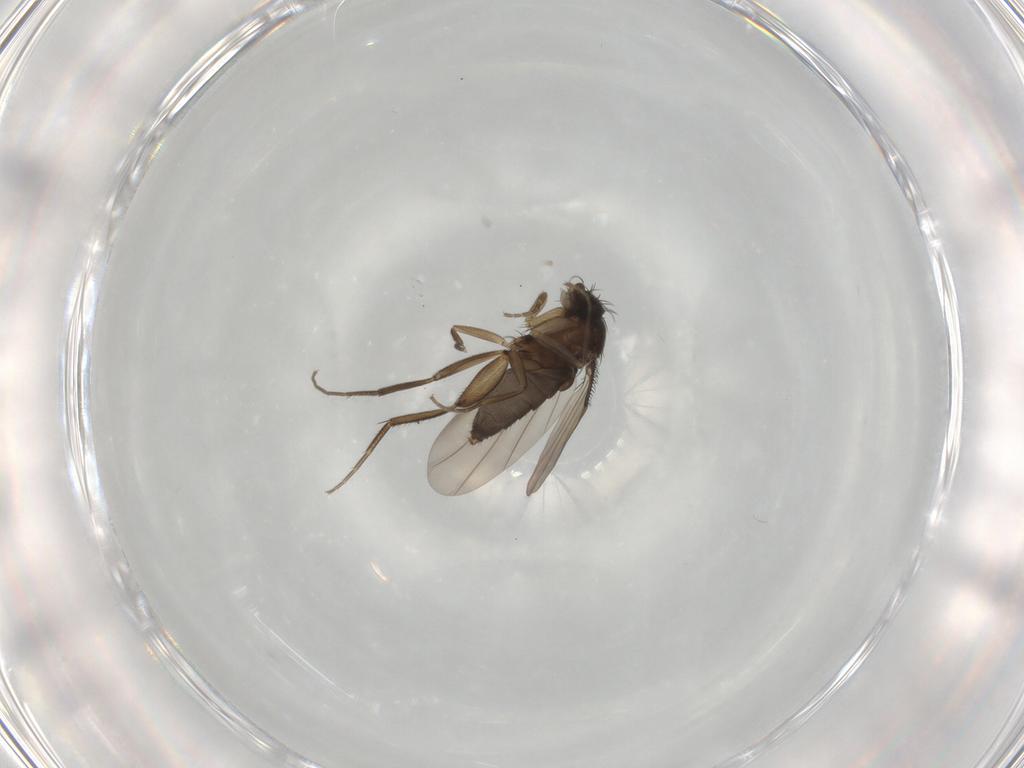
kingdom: Animalia
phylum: Arthropoda
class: Insecta
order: Diptera
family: Phoridae
